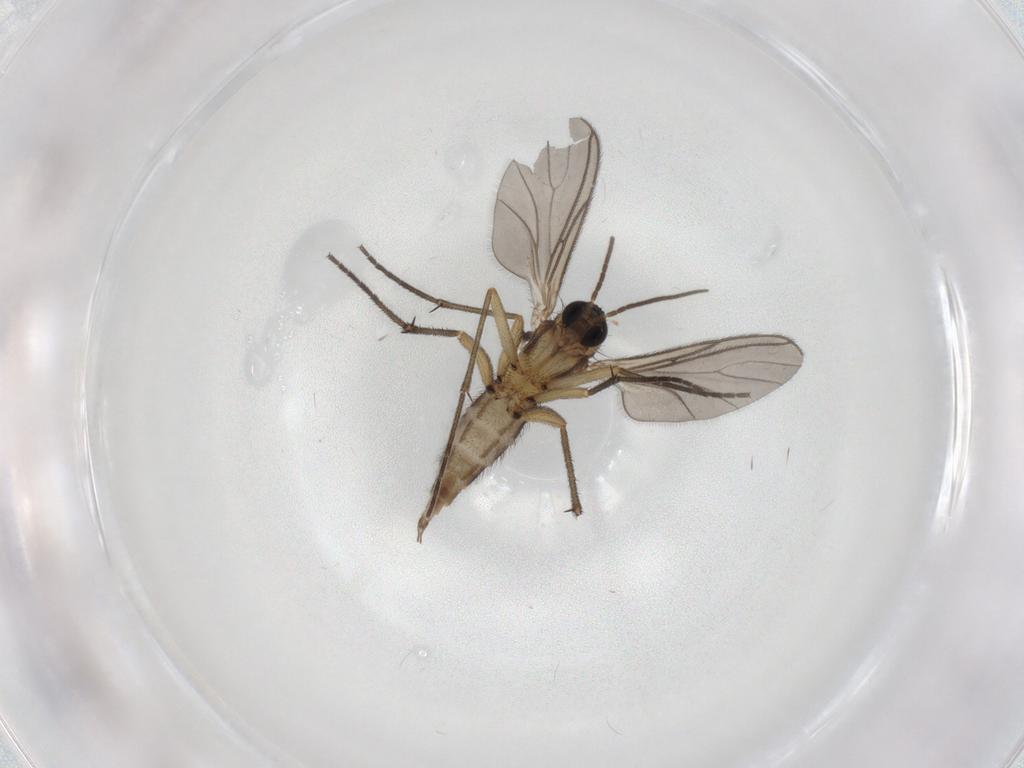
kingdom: Animalia
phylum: Arthropoda
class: Insecta
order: Diptera
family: Sciaridae
